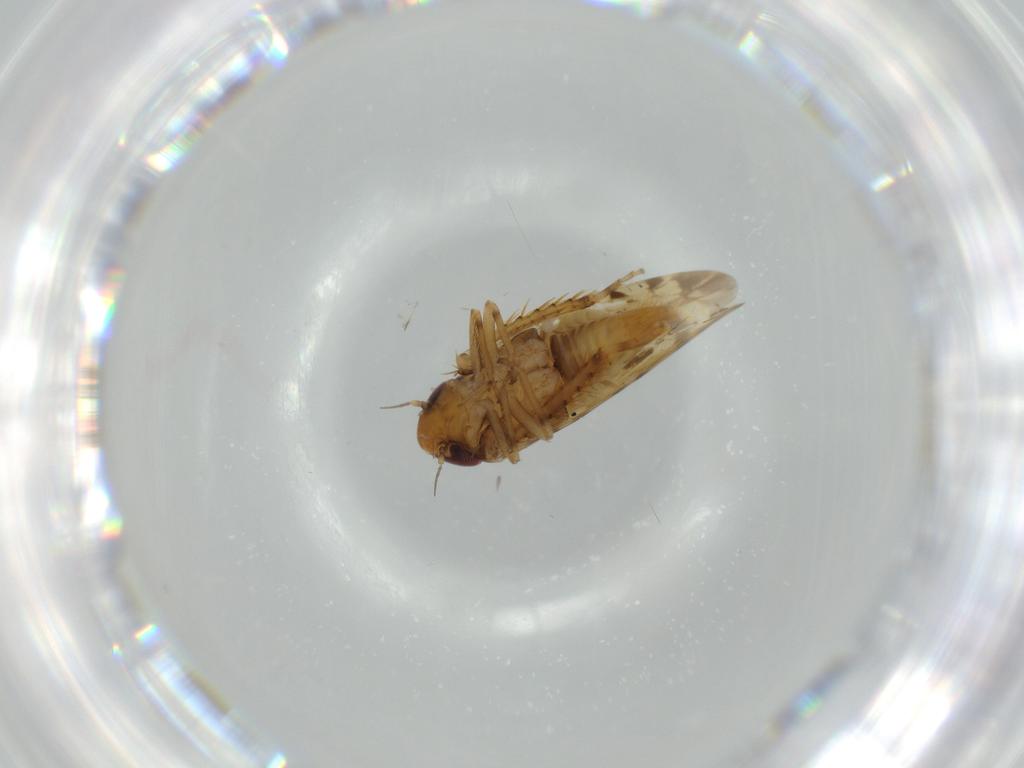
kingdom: Animalia
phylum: Arthropoda
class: Insecta
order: Hemiptera
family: Cicadellidae
